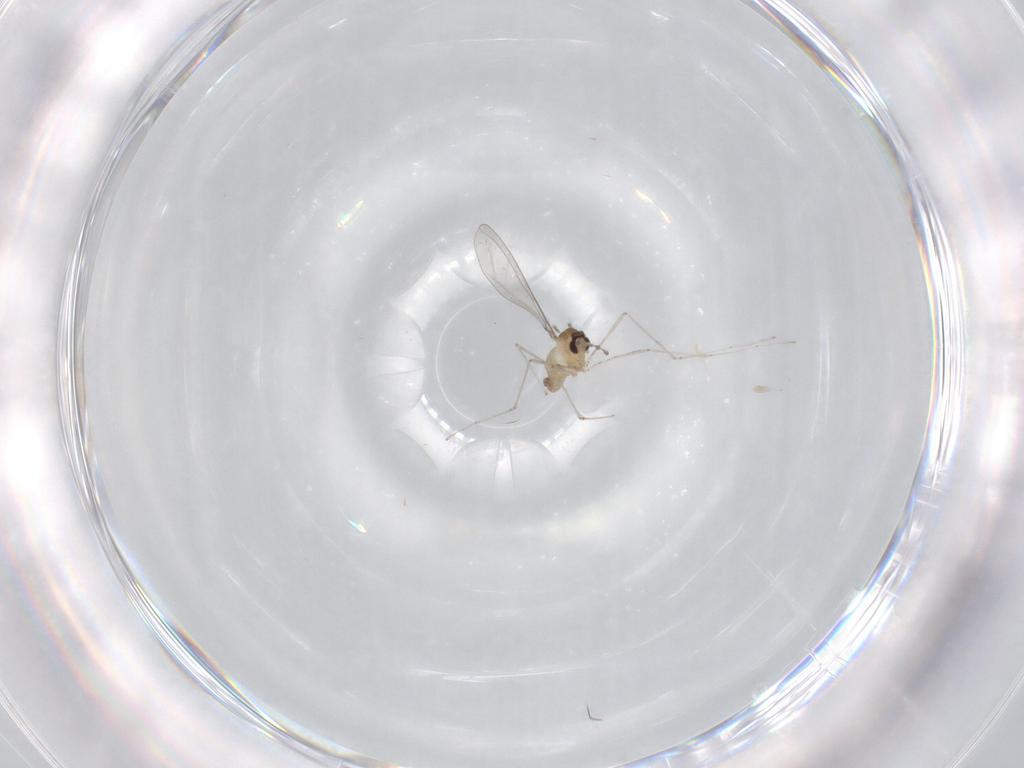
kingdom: Animalia
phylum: Arthropoda
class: Insecta
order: Diptera
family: Cecidomyiidae
